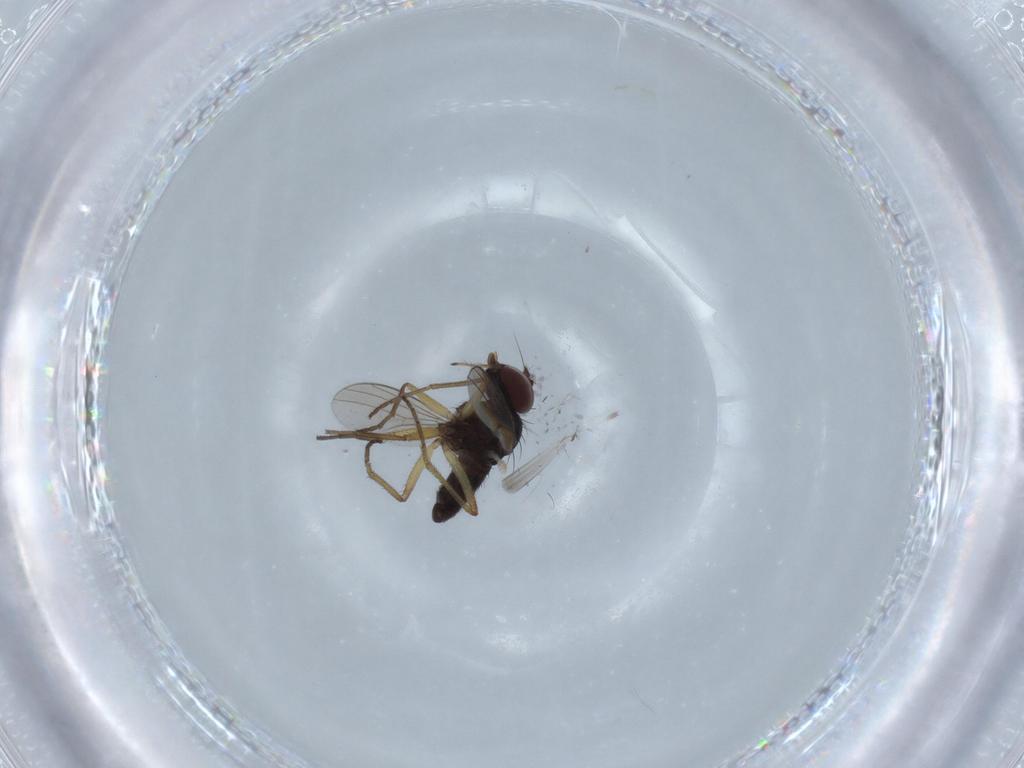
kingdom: Animalia
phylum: Arthropoda
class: Insecta
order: Diptera
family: Dolichopodidae
